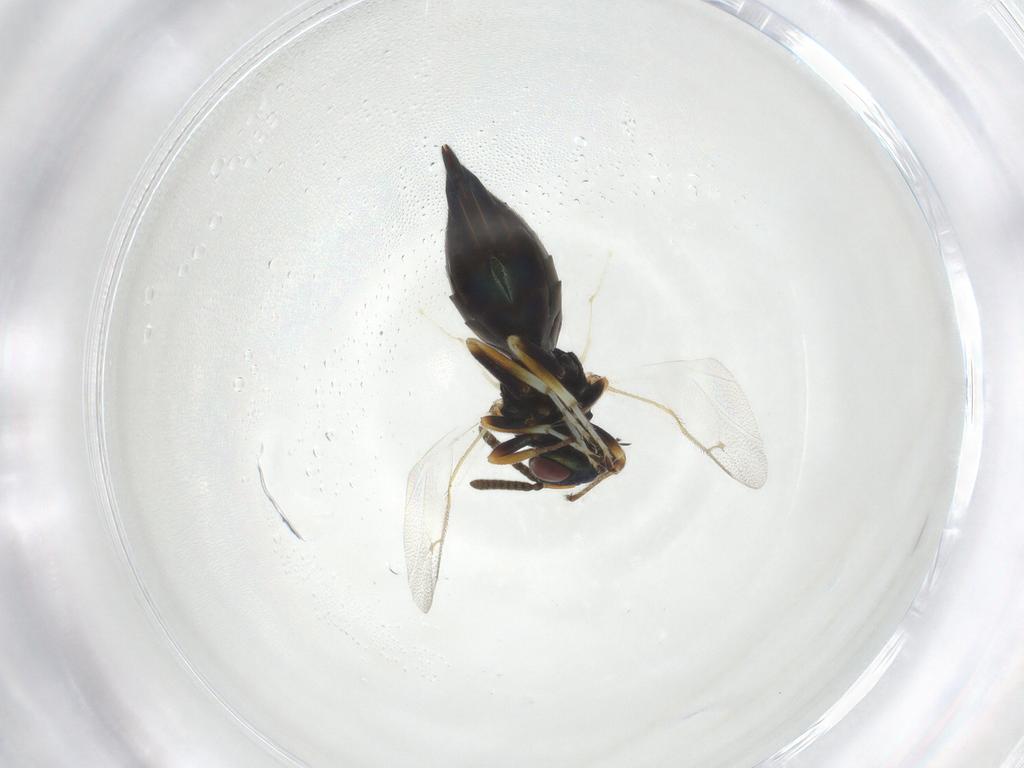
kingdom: Animalia
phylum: Arthropoda
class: Insecta
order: Hymenoptera
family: Pteromalidae
